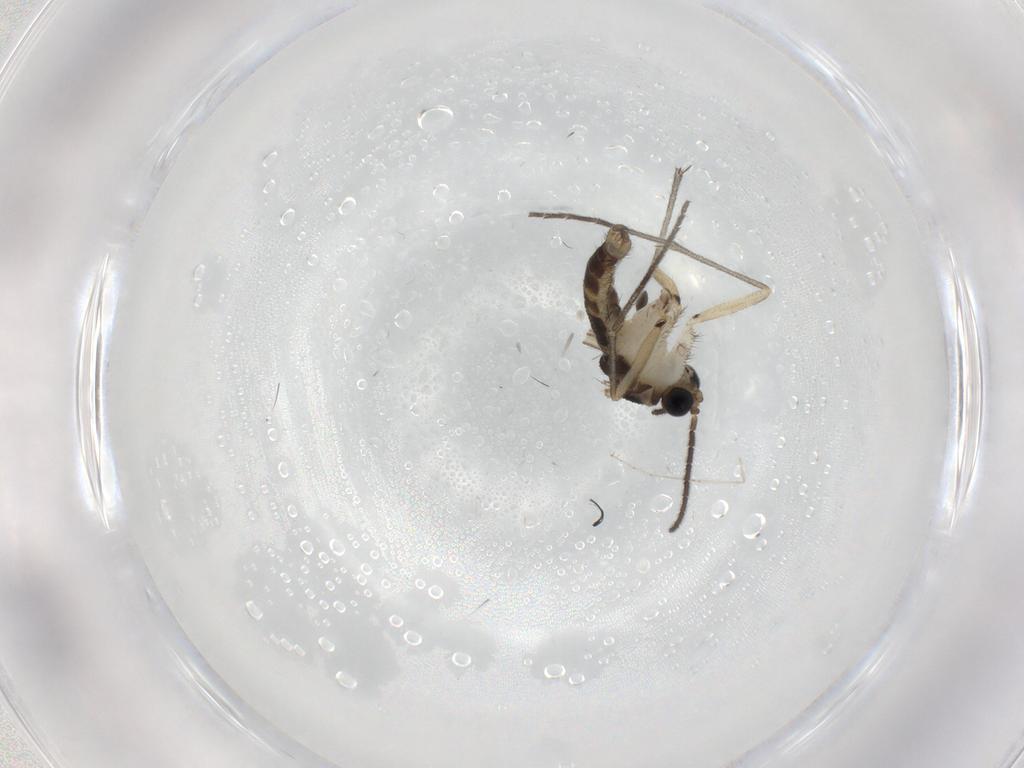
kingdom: Animalia
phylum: Arthropoda
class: Insecta
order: Diptera
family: Sciaridae
